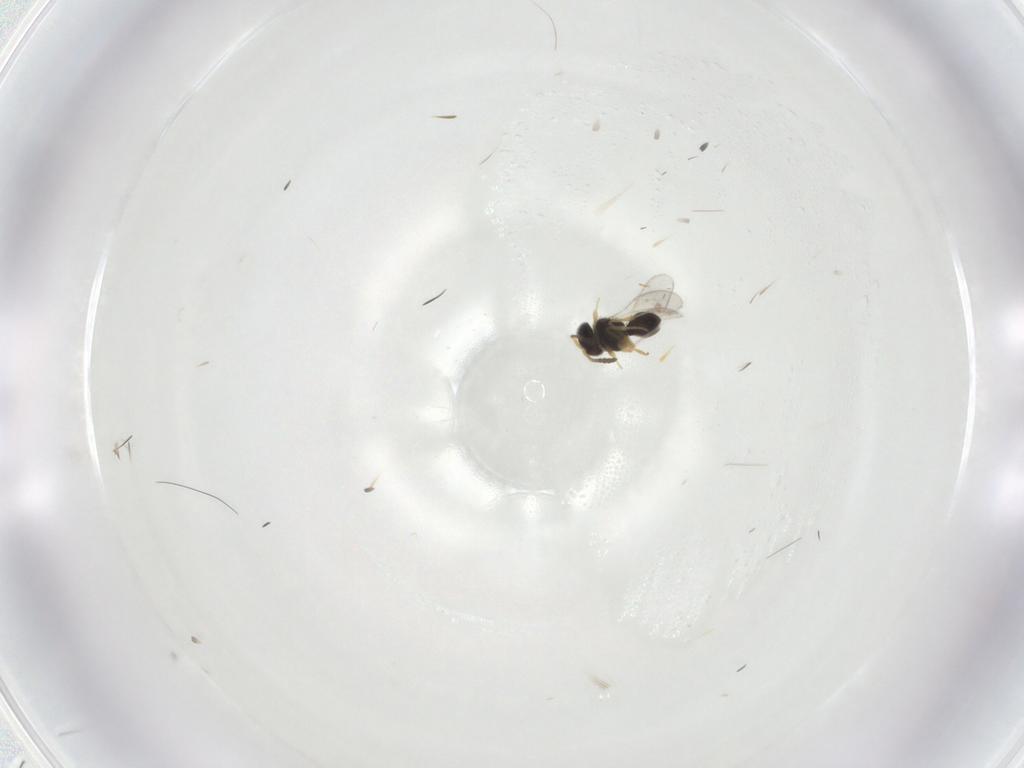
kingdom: Animalia
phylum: Arthropoda
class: Insecta
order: Hymenoptera
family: Scelionidae
